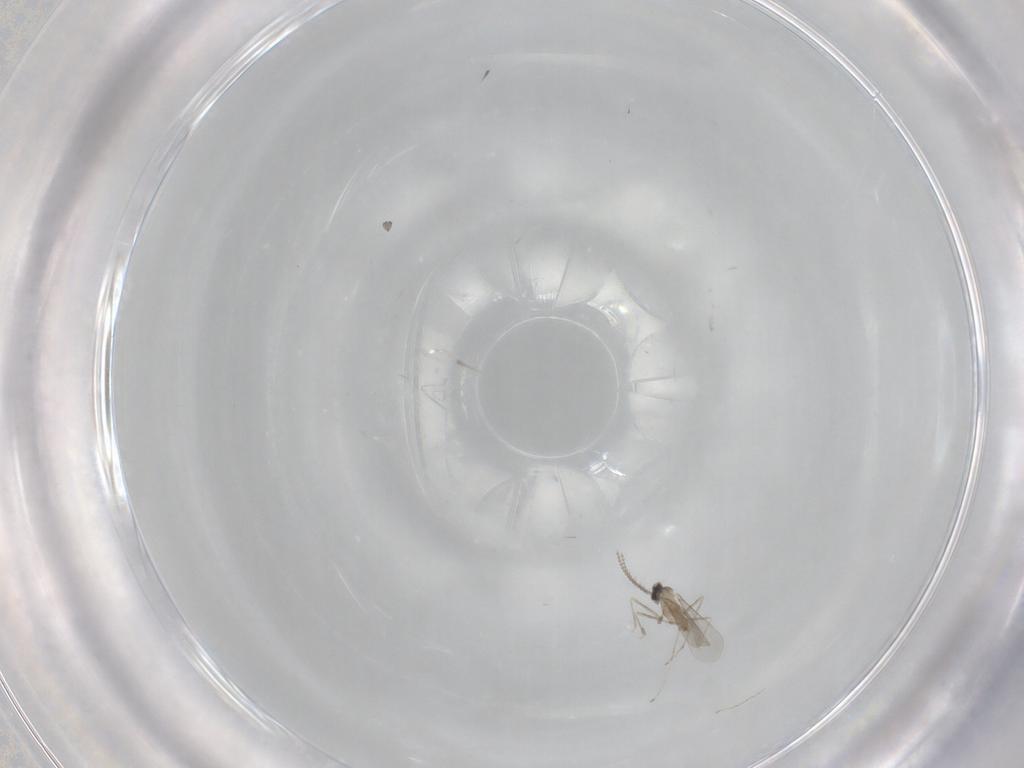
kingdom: Animalia
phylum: Arthropoda
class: Insecta
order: Diptera
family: Cecidomyiidae
